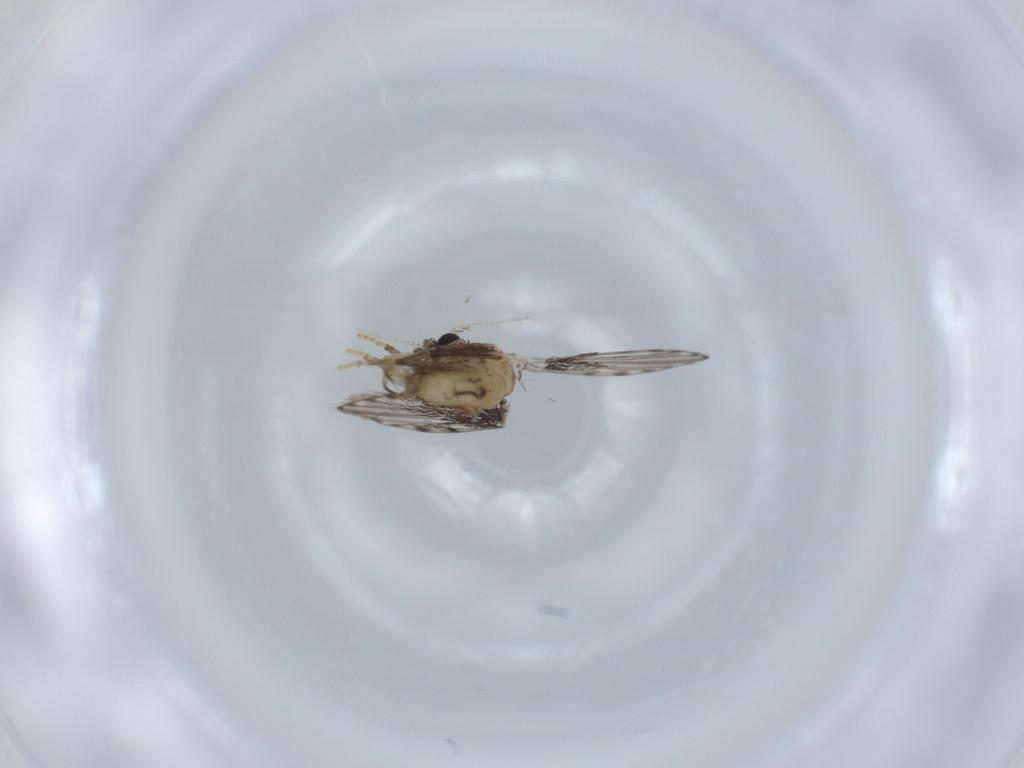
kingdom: Animalia
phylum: Arthropoda
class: Insecta
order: Diptera
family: Psychodidae
